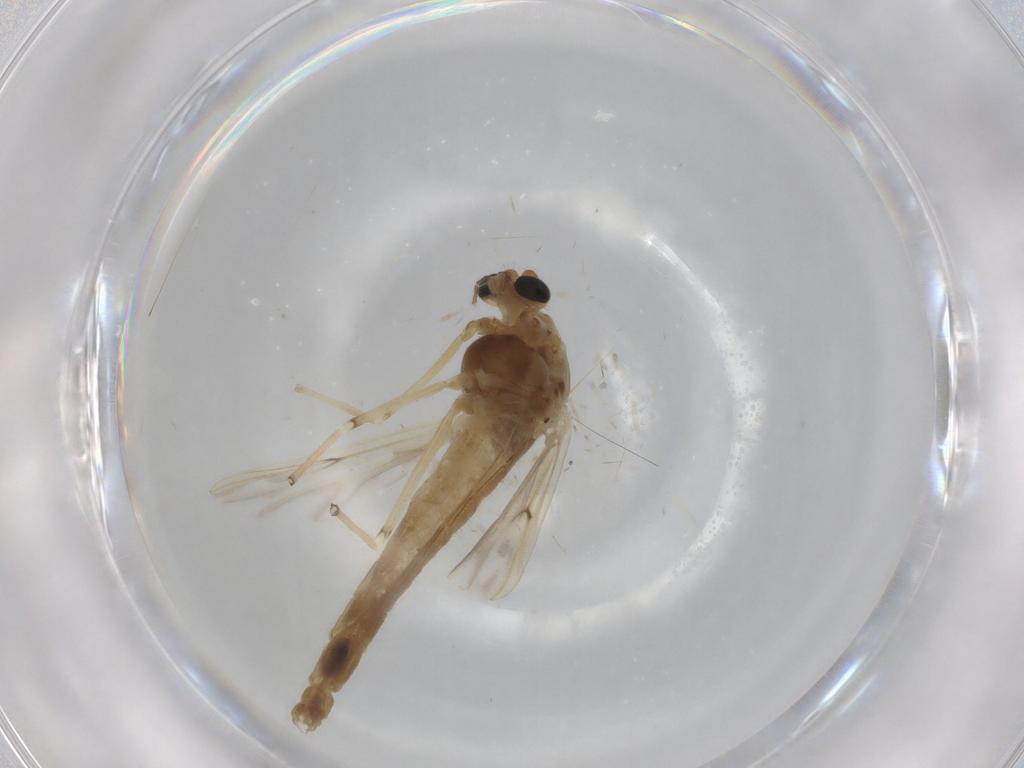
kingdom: Animalia
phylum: Arthropoda
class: Insecta
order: Diptera
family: Chironomidae
